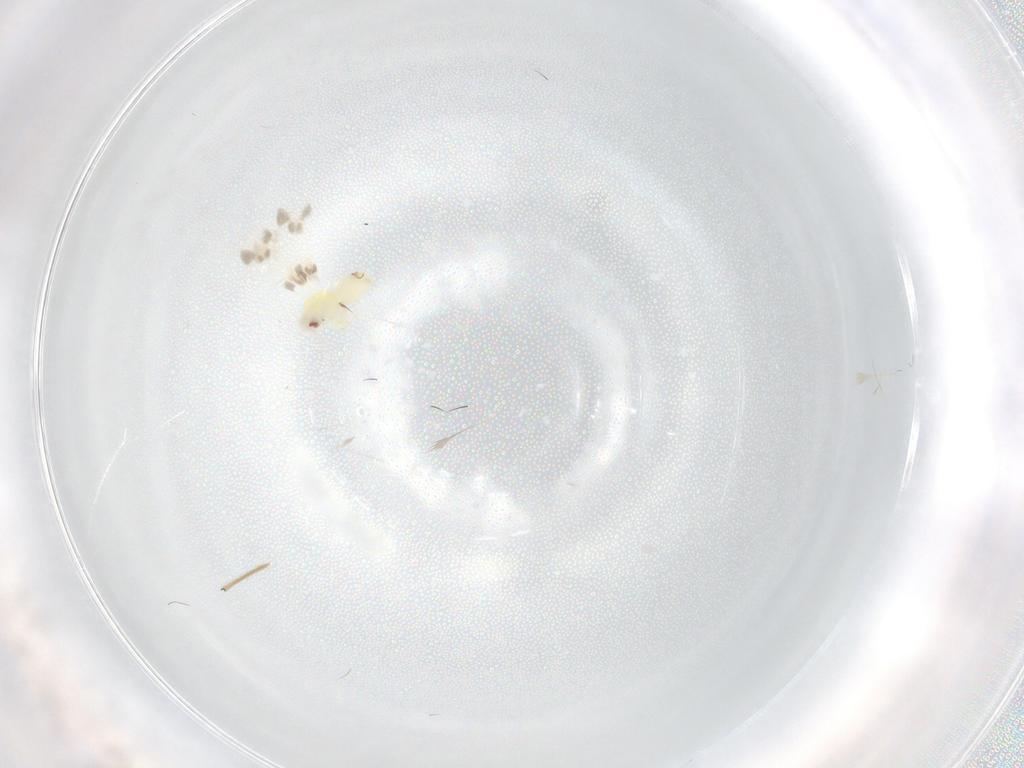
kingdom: Animalia
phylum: Arthropoda
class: Insecta
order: Hemiptera
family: Aleyrodidae
